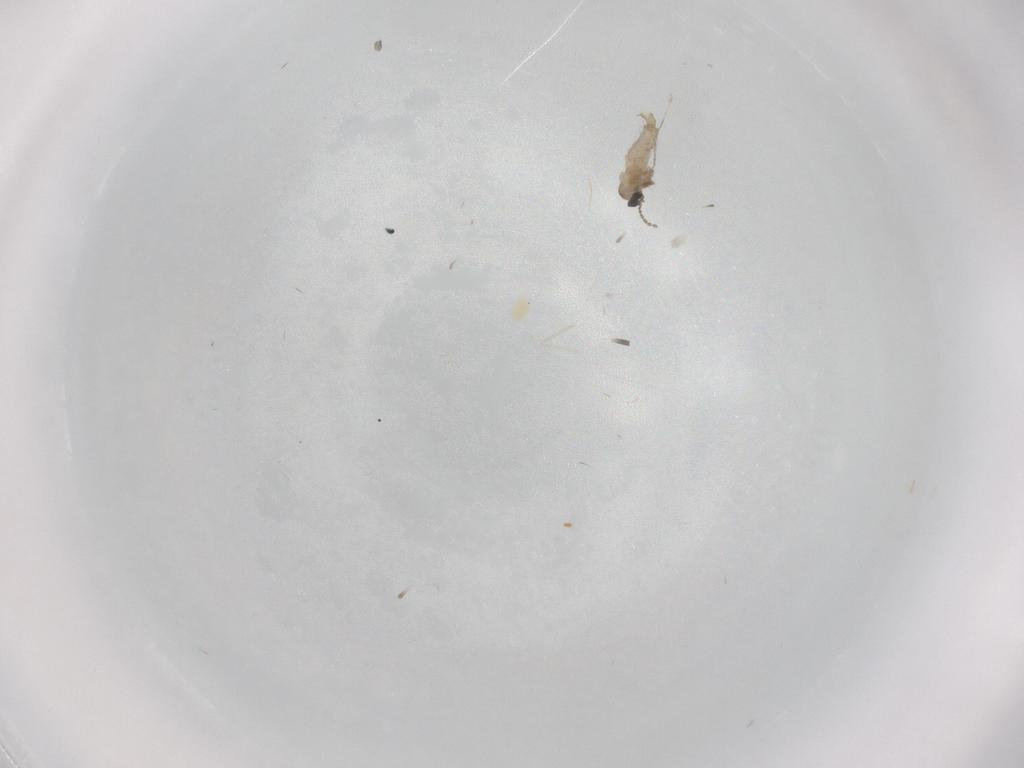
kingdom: Animalia
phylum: Arthropoda
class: Insecta
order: Diptera
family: Cecidomyiidae
